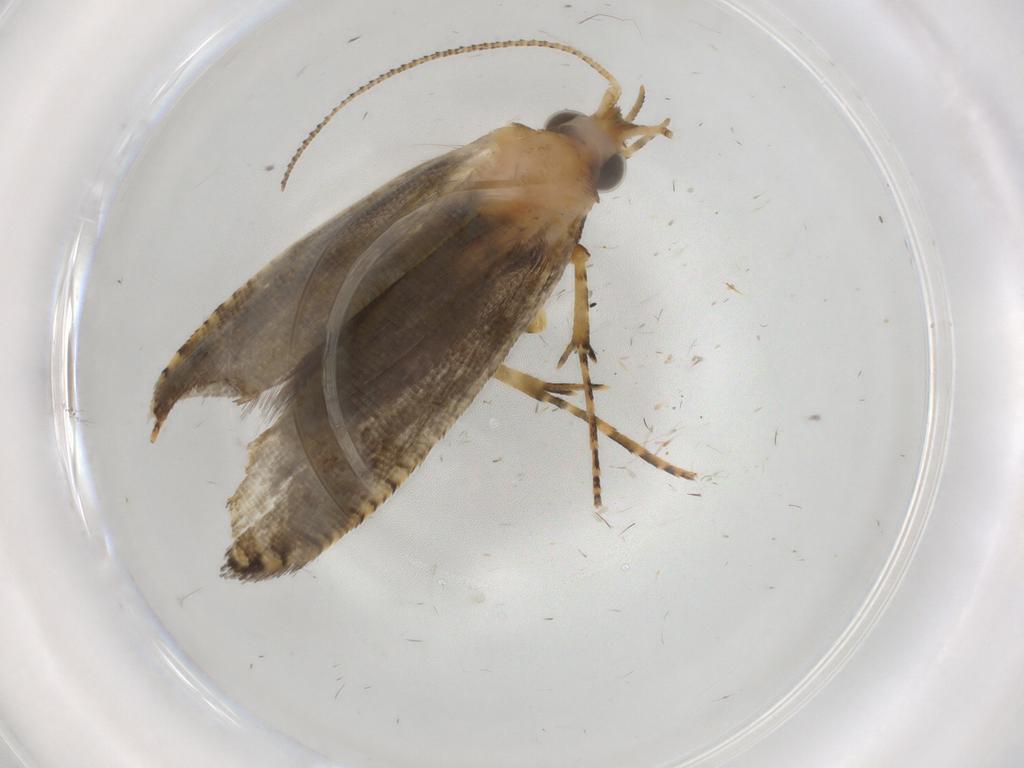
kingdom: Animalia
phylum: Arthropoda
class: Insecta
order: Lepidoptera
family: Argyresthiidae
